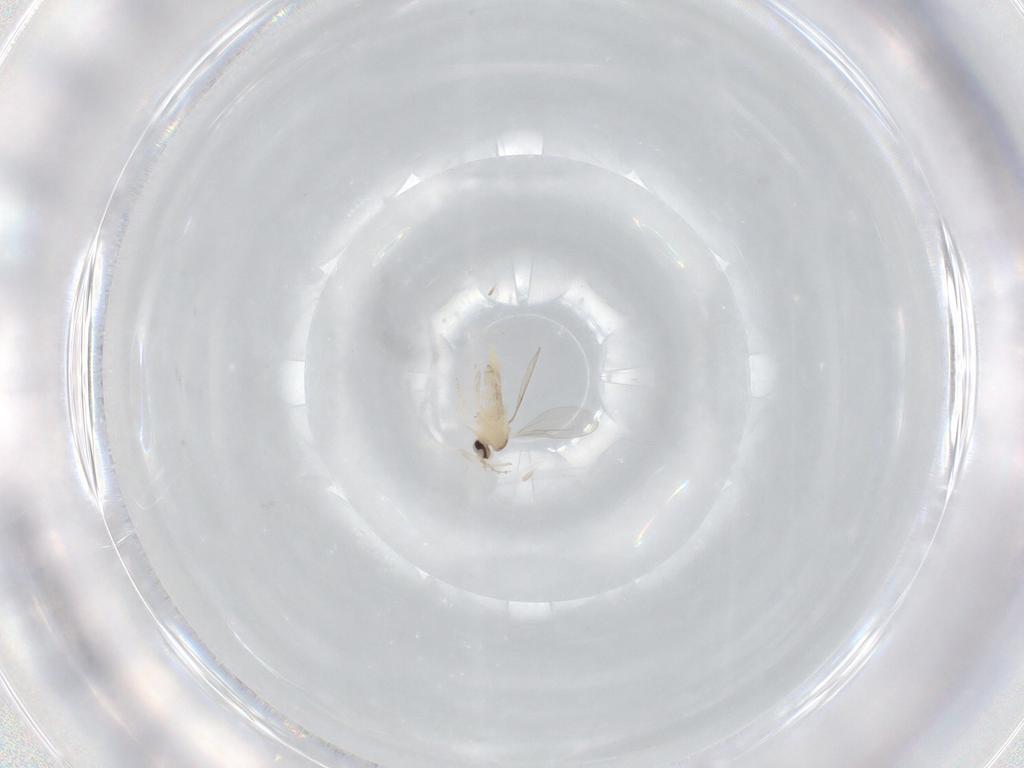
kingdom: Animalia
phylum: Arthropoda
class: Insecta
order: Diptera
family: Cecidomyiidae
